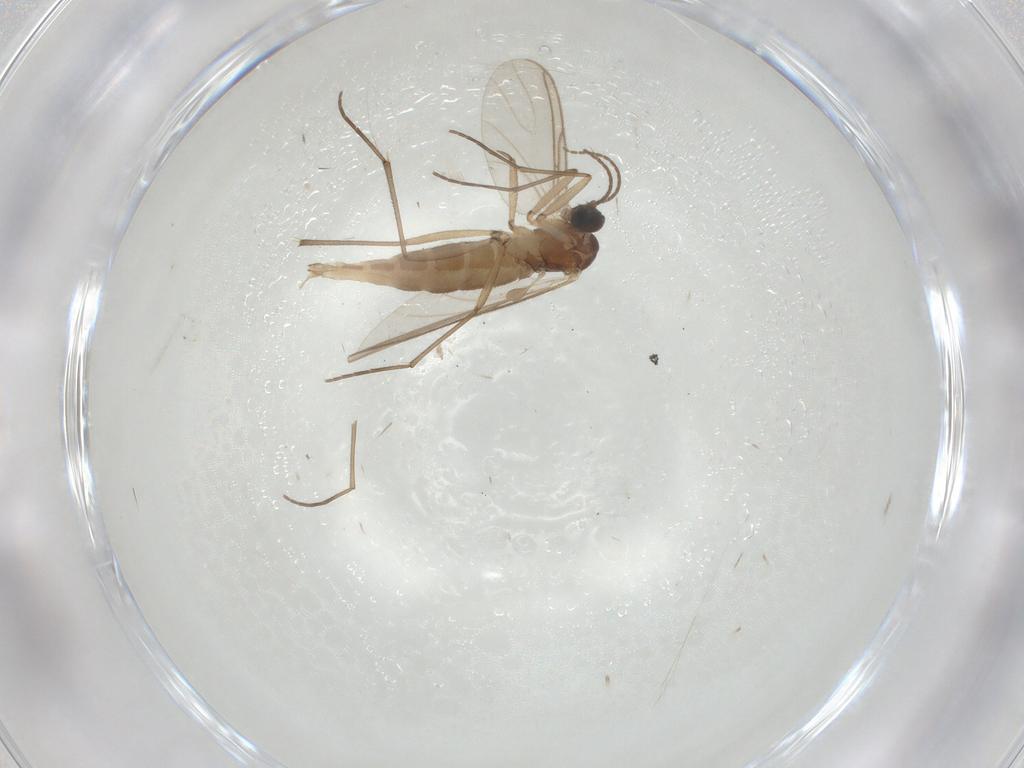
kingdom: Animalia
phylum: Arthropoda
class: Insecta
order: Diptera
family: Sciaridae
